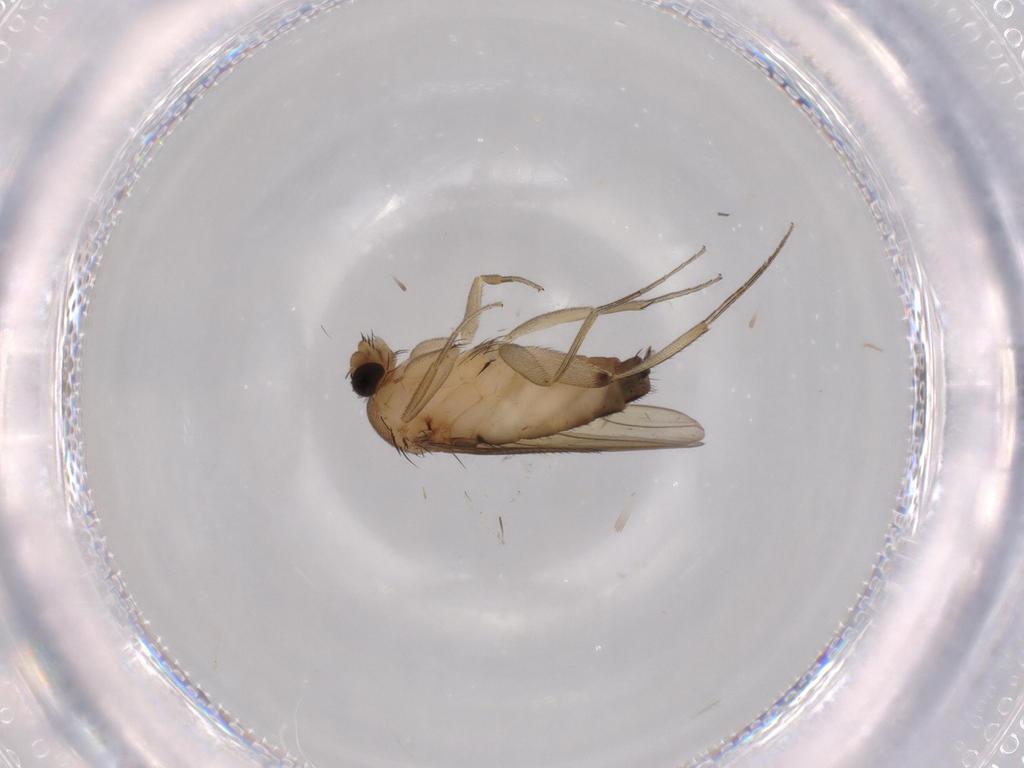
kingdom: Animalia
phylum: Arthropoda
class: Insecta
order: Diptera
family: Phoridae
